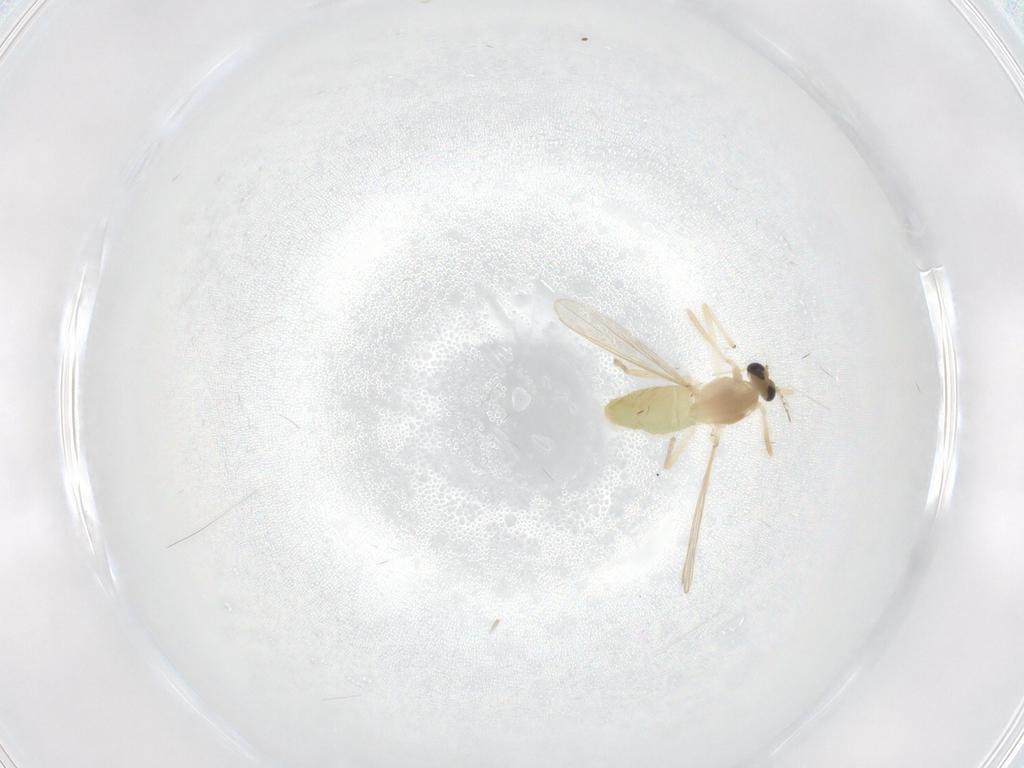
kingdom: Animalia
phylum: Arthropoda
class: Insecta
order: Diptera
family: Chironomidae
